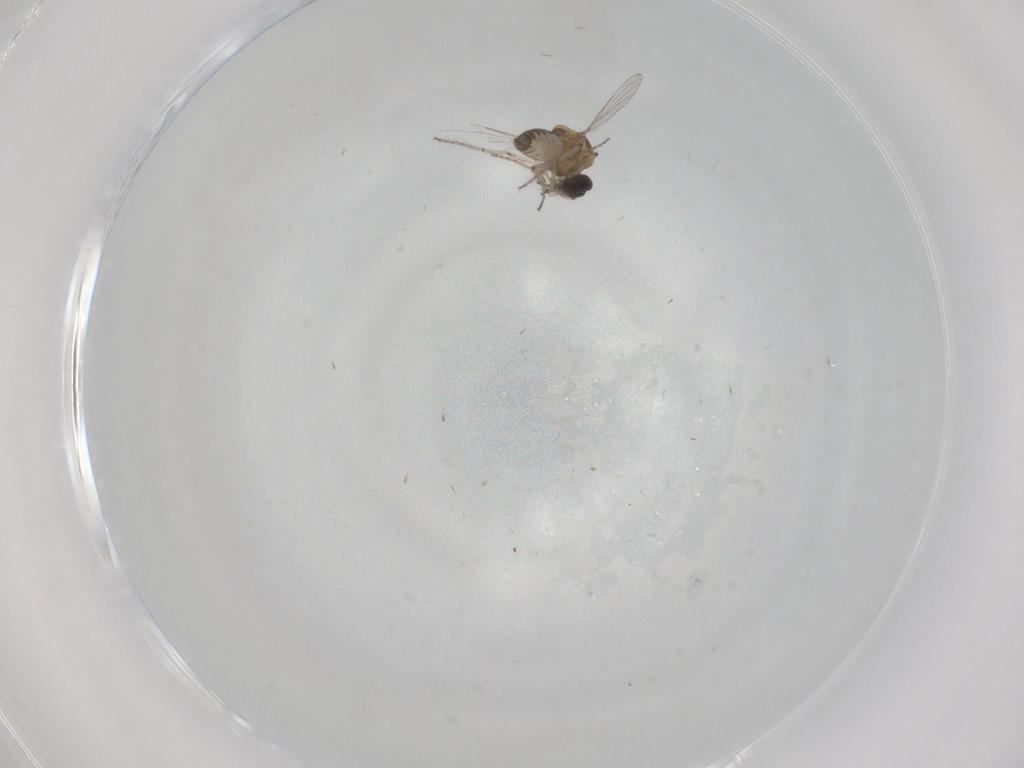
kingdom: Animalia
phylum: Arthropoda
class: Insecta
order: Diptera
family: Ceratopogonidae
